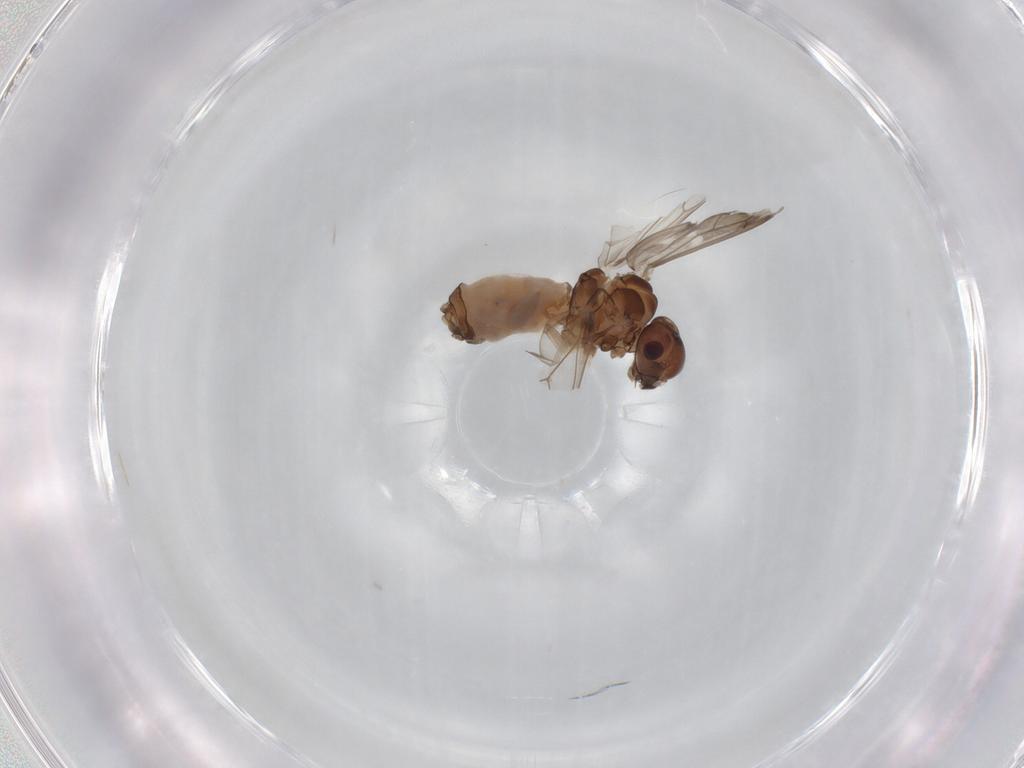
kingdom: Animalia
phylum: Arthropoda
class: Insecta
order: Psocodea
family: Peripsocidae
